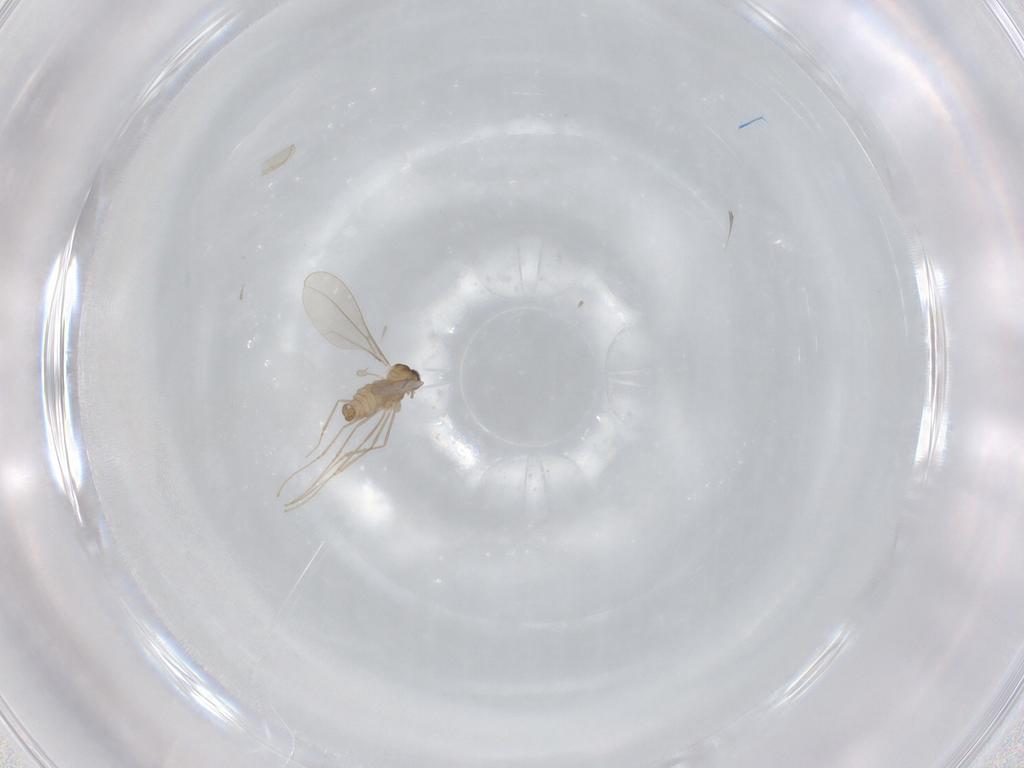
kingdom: Animalia
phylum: Arthropoda
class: Insecta
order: Diptera
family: Chironomidae
